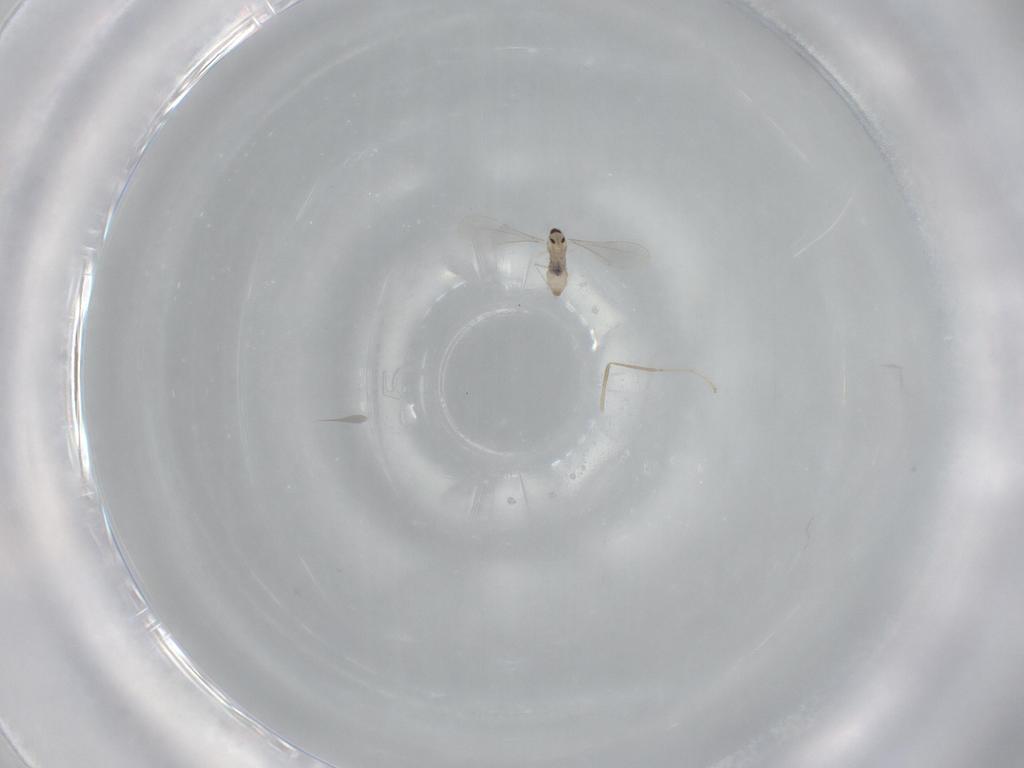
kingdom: Animalia
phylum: Arthropoda
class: Insecta
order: Diptera
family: Cecidomyiidae
